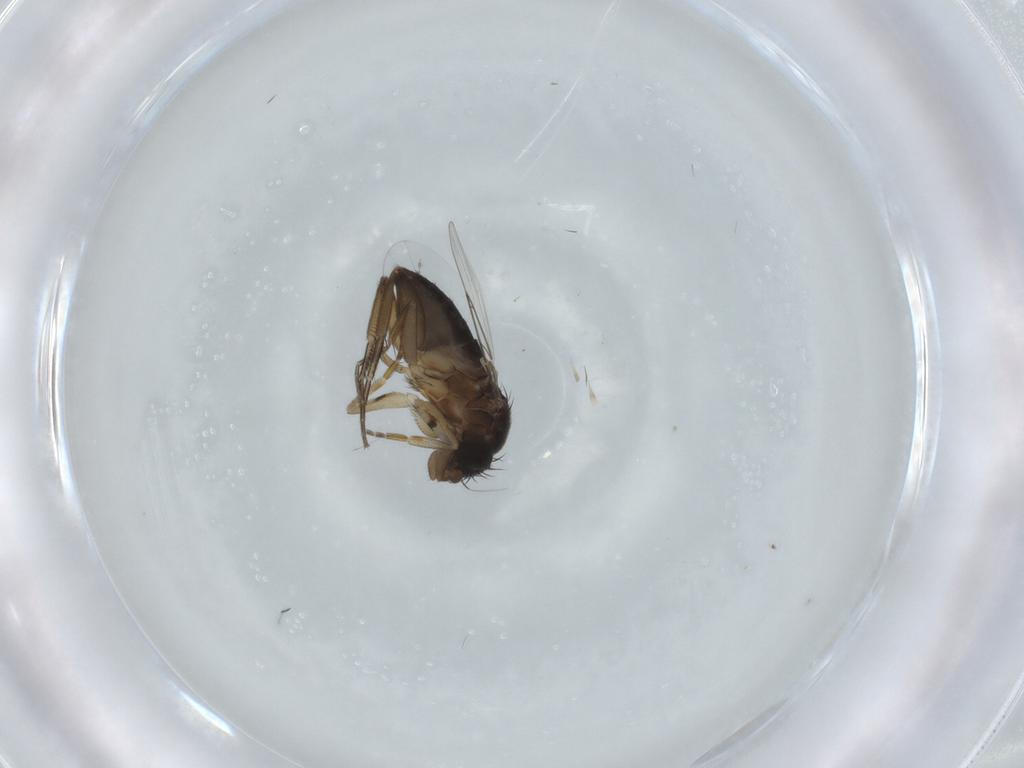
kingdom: Animalia
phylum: Arthropoda
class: Insecta
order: Diptera
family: Phoridae
